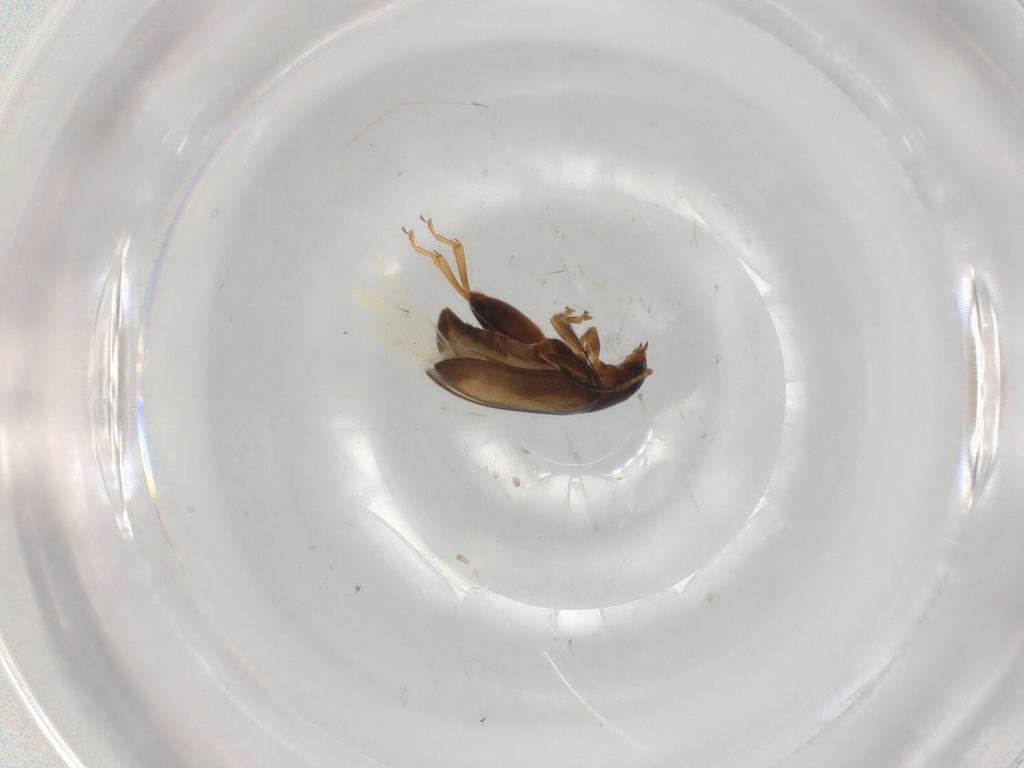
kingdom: Animalia
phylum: Arthropoda
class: Insecta
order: Coleoptera
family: Chrysomelidae
